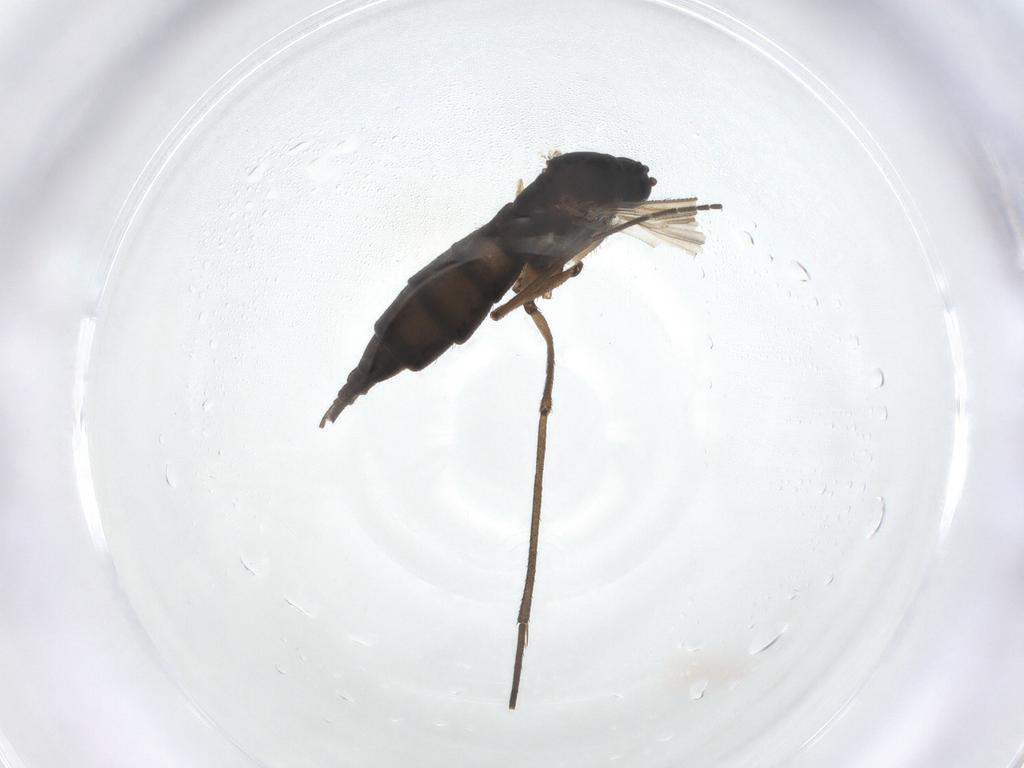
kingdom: Animalia
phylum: Arthropoda
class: Insecta
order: Diptera
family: Sciaridae
